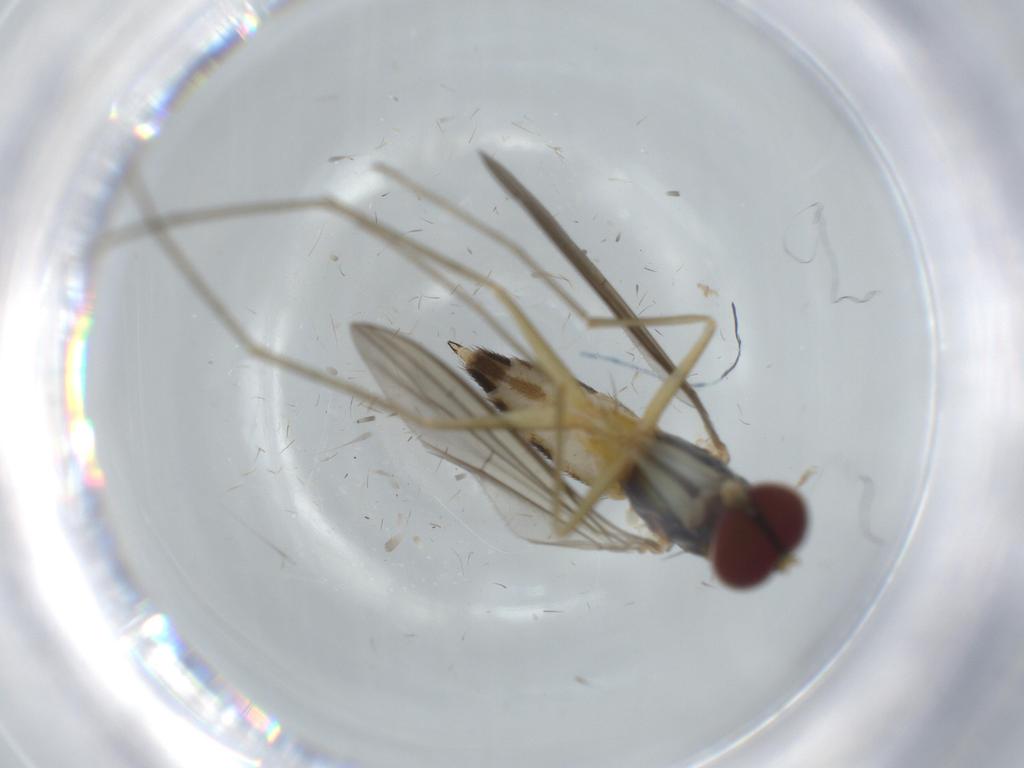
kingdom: Animalia
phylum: Arthropoda
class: Insecta
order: Diptera
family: Dolichopodidae
